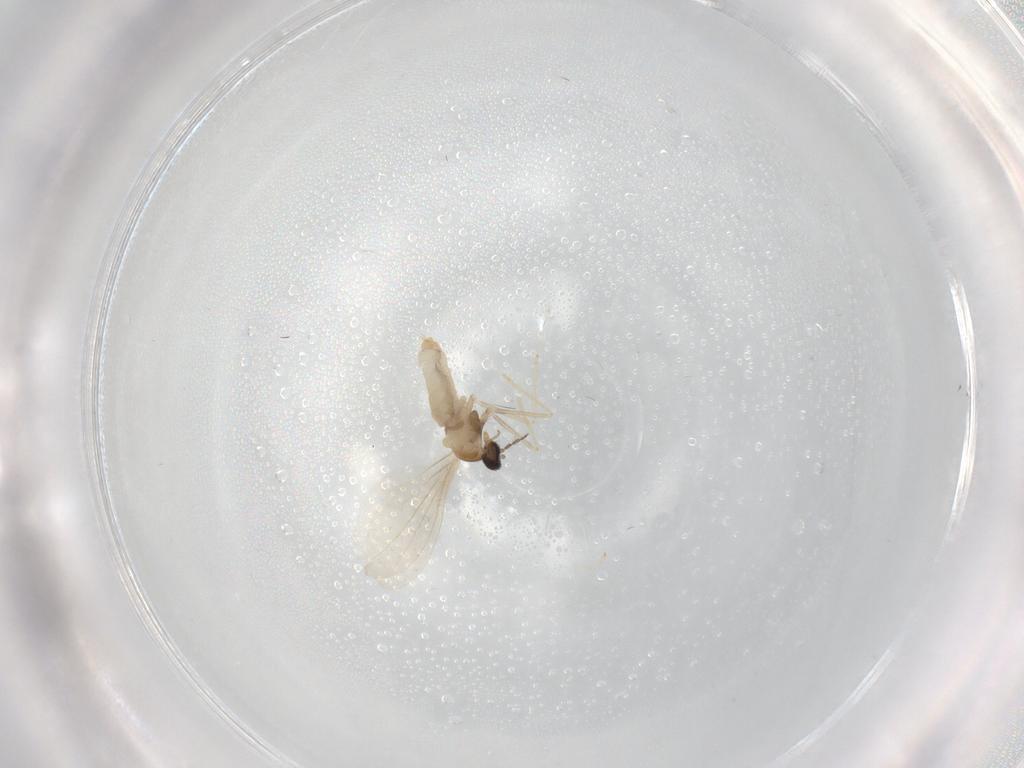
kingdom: Animalia
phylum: Arthropoda
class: Insecta
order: Diptera
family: Cecidomyiidae
